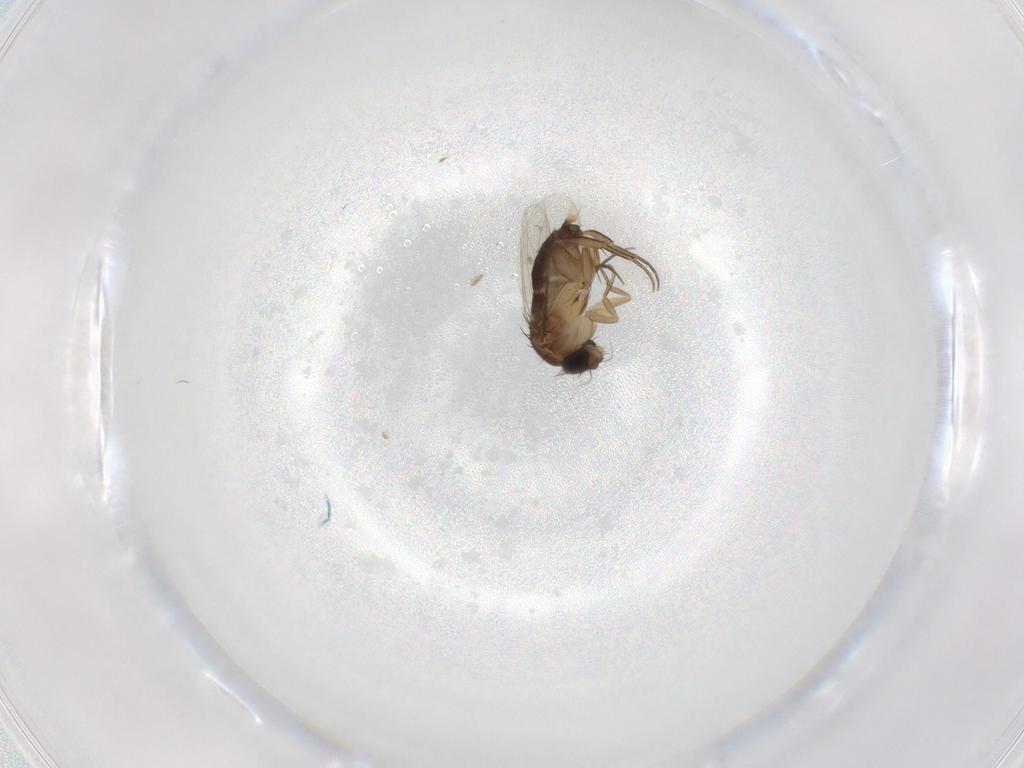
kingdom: Animalia
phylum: Arthropoda
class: Insecta
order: Diptera
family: Phoridae
